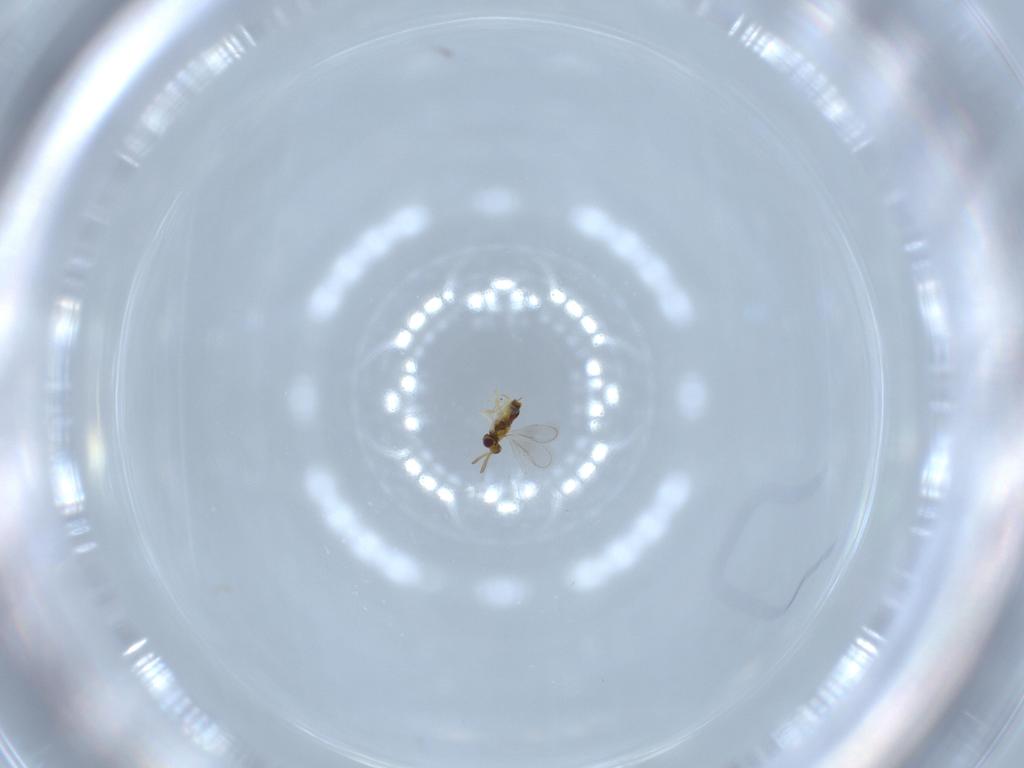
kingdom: Animalia
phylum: Arthropoda
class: Insecta
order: Hymenoptera
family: Aphelinidae
